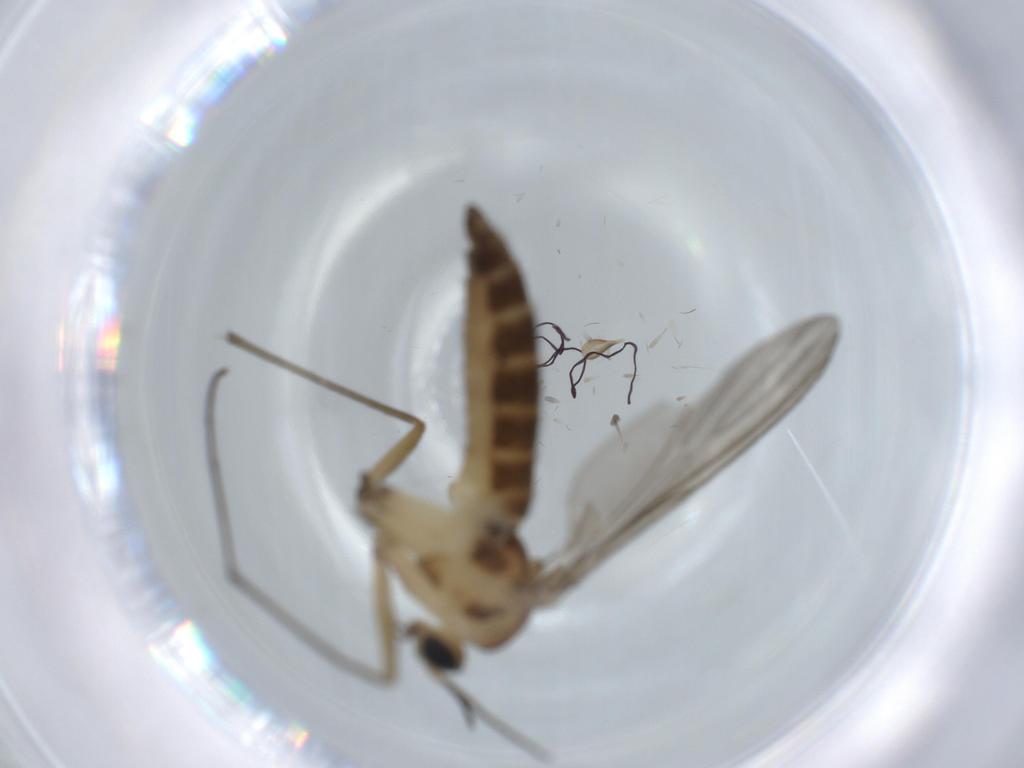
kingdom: Animalia
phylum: Arthropoda
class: Insecta
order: Diptera
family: Sciaridae
